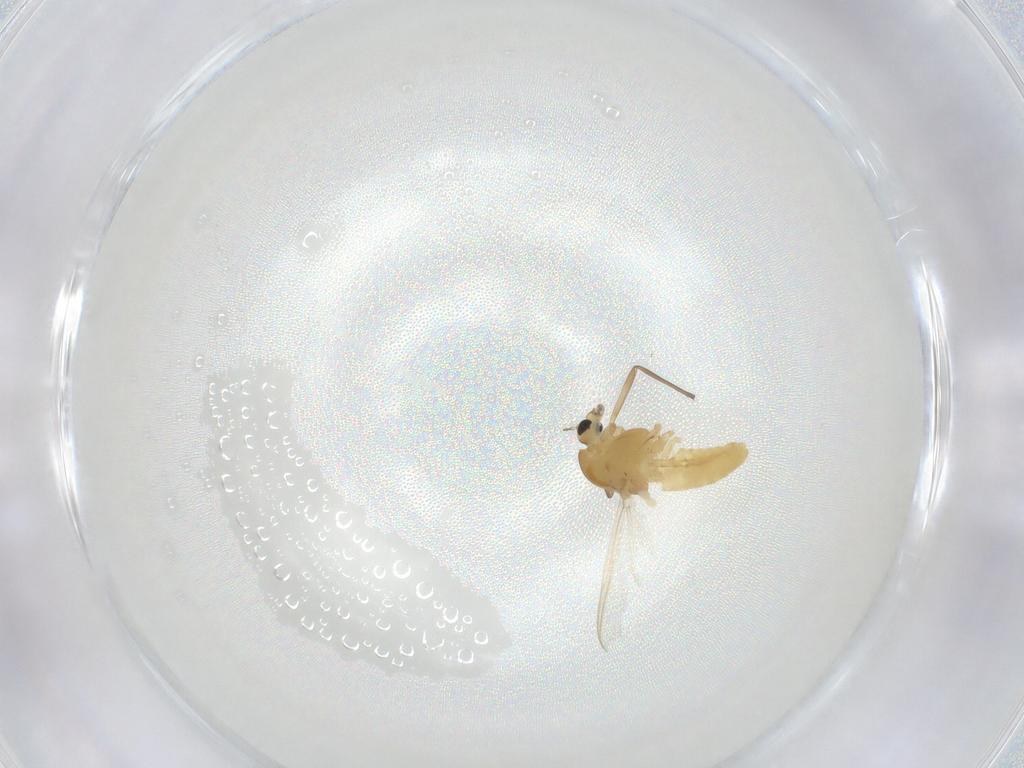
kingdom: Animalia
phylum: Arthropoda
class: Insecta
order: Diptera
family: Chironomidae
